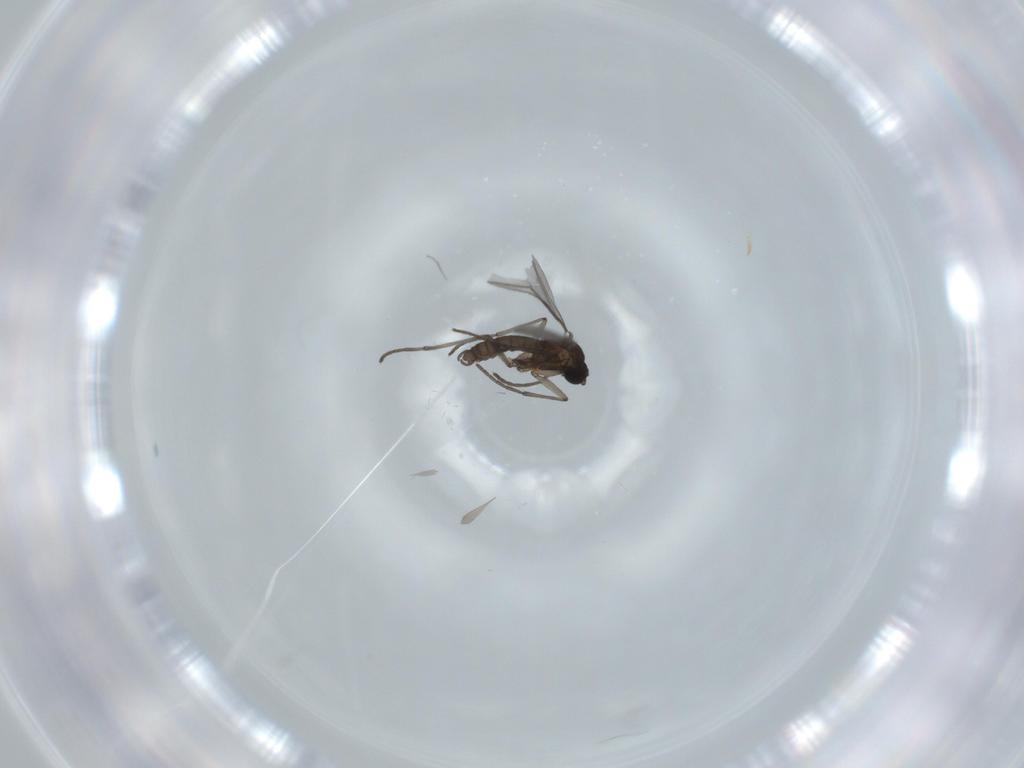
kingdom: Animalia
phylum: Arthropoda
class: Insecta
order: Diptera
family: Sciaridae
